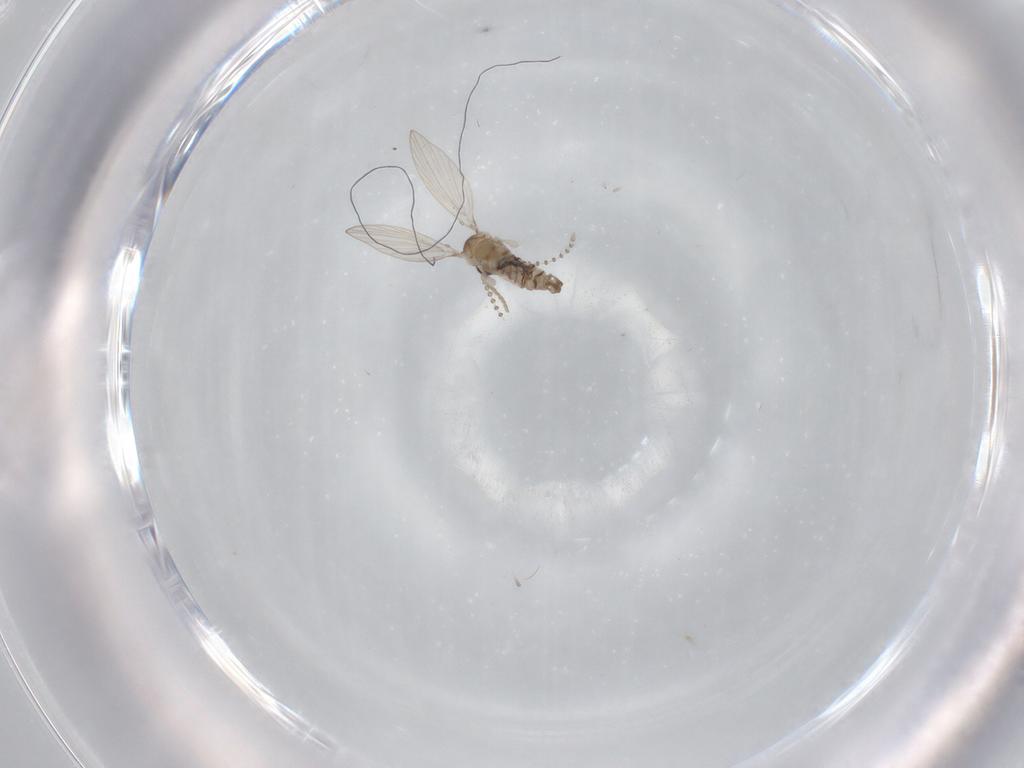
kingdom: Animalia
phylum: Arthropoda
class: Insecta
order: Diptera
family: Psychodidae
